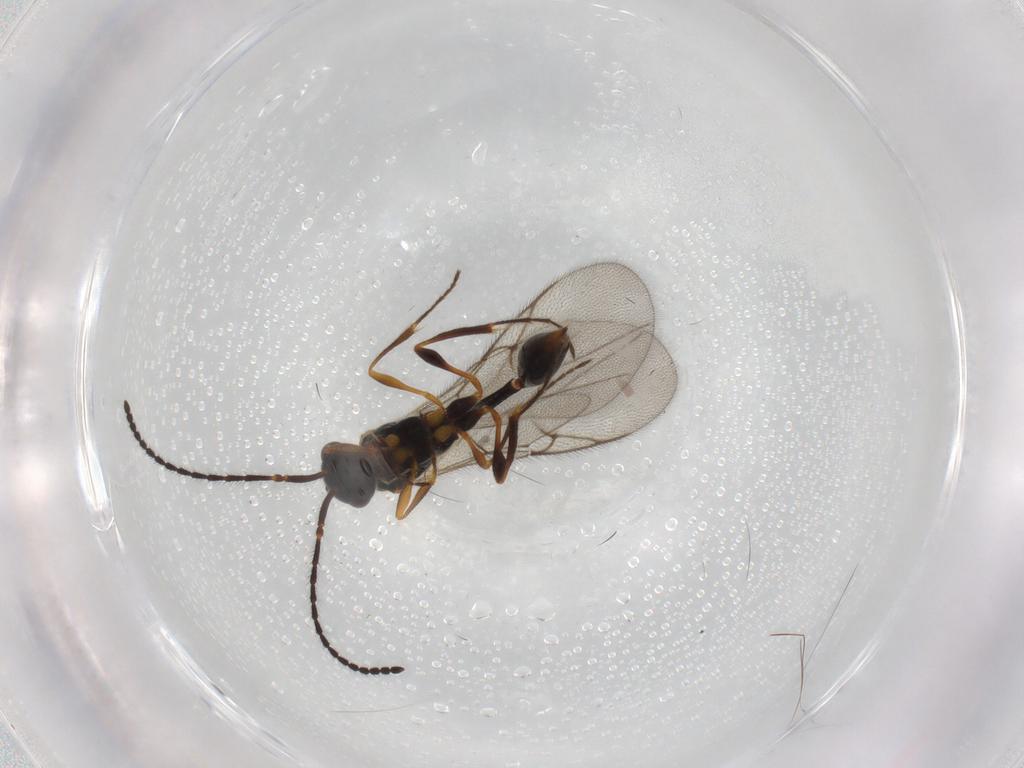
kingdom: Animalia
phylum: Arthropoda
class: Insecta
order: Hymenoptera
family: Diapriidae
